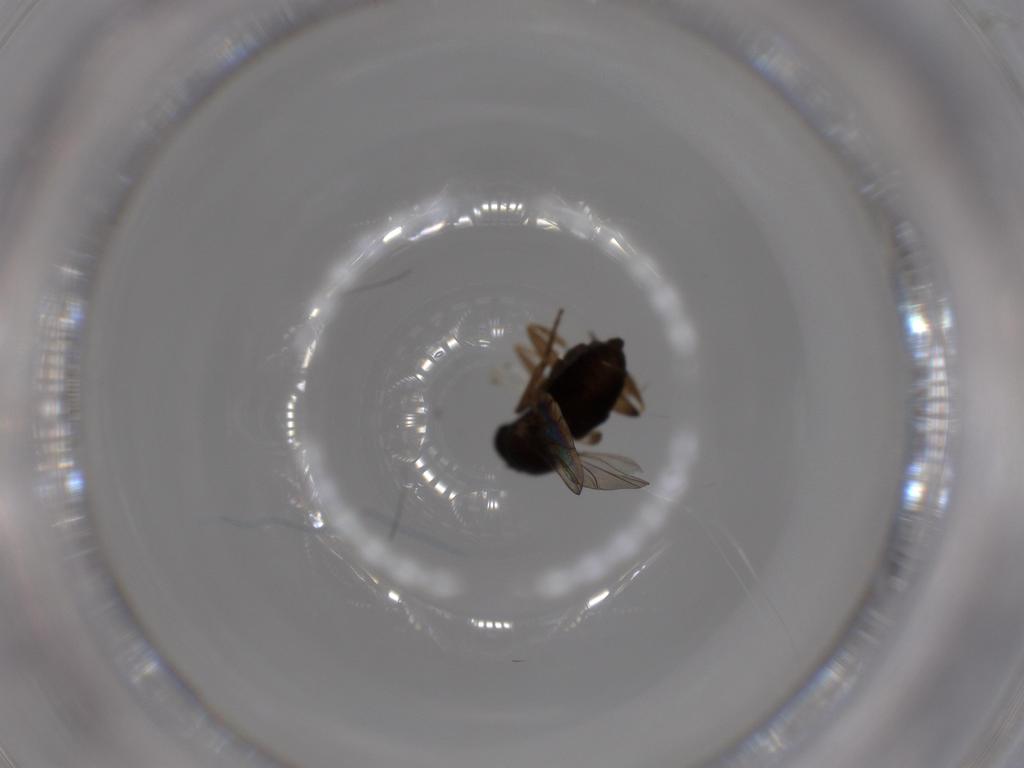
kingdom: Animalia
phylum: Arthropoda
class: Insecta
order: Diptera
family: Phoridae
